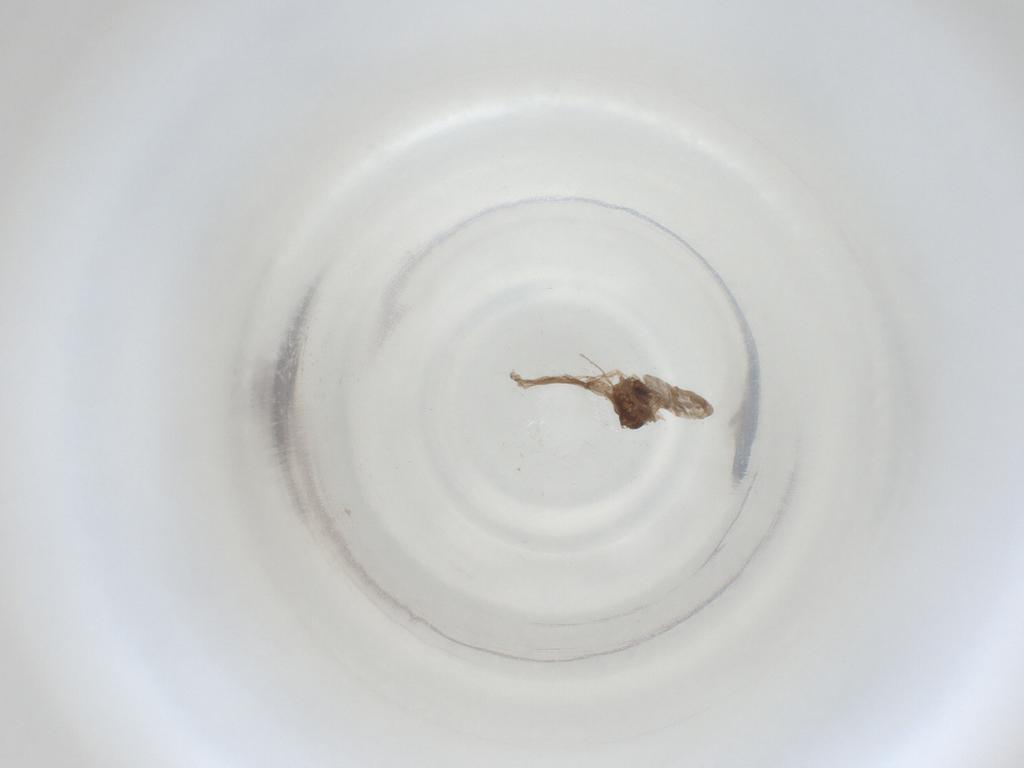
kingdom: Animalia
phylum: Arthropoda
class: Insecta
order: Diptera
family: Cecidomyiidae
